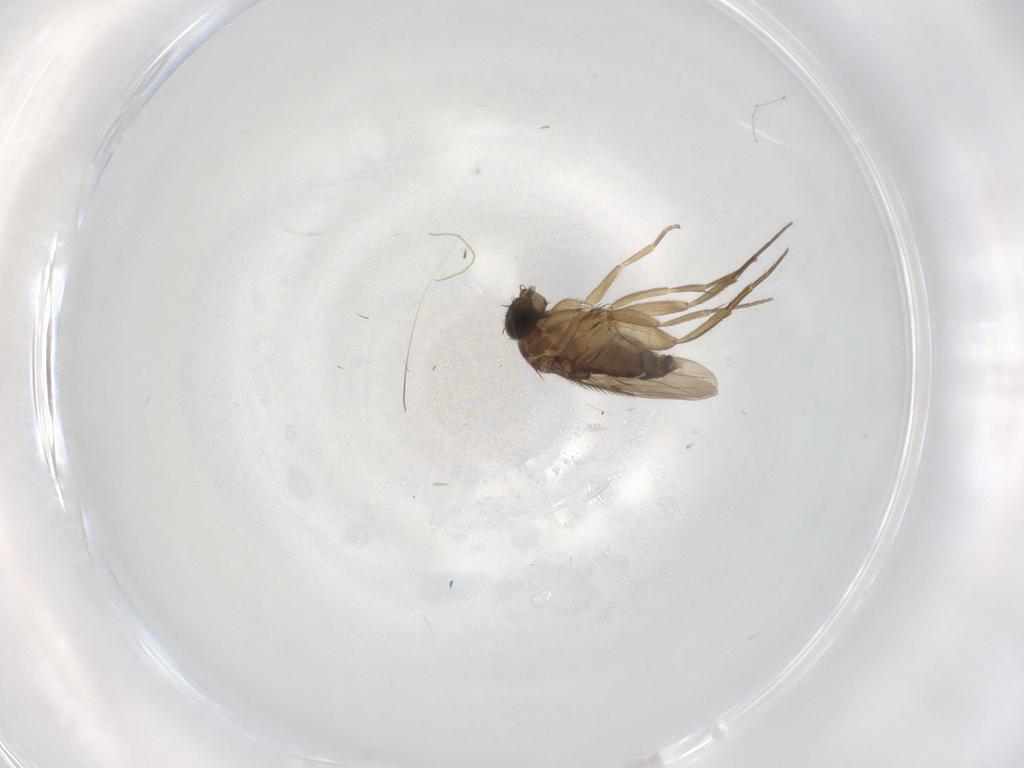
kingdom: Animalia
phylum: Arthropoda
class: Insecta
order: Diptera
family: Phoridae
